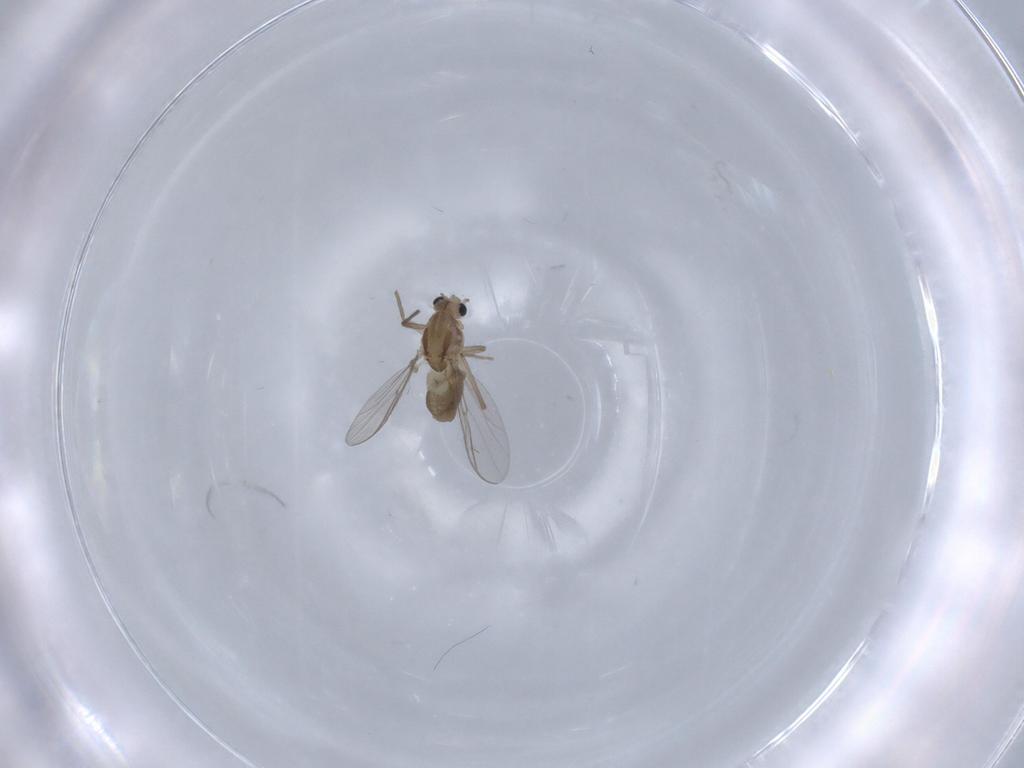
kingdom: Animalia
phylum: Arthropoda
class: Insecta
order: Diptera
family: Chironomidae
